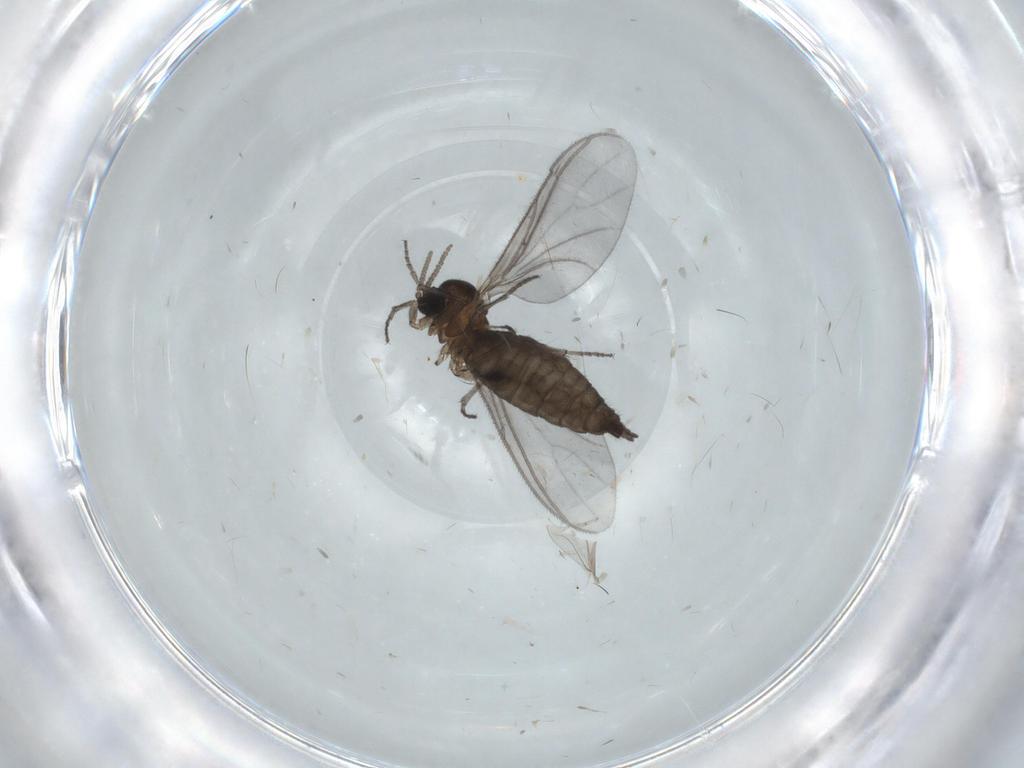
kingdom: Animalia
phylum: Arthropoda
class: Insecta
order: Diptera
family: Sciaridae
